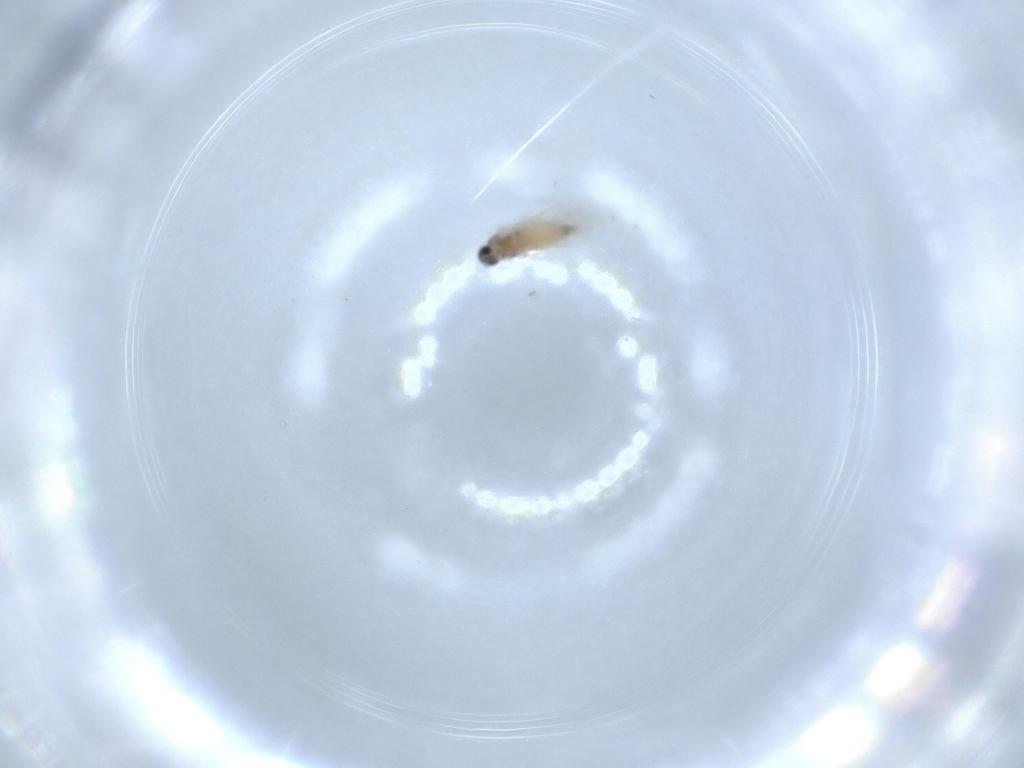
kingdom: Animalia
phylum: Arthropoda
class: Insecta
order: Diptera
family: Cecidomyiidae
